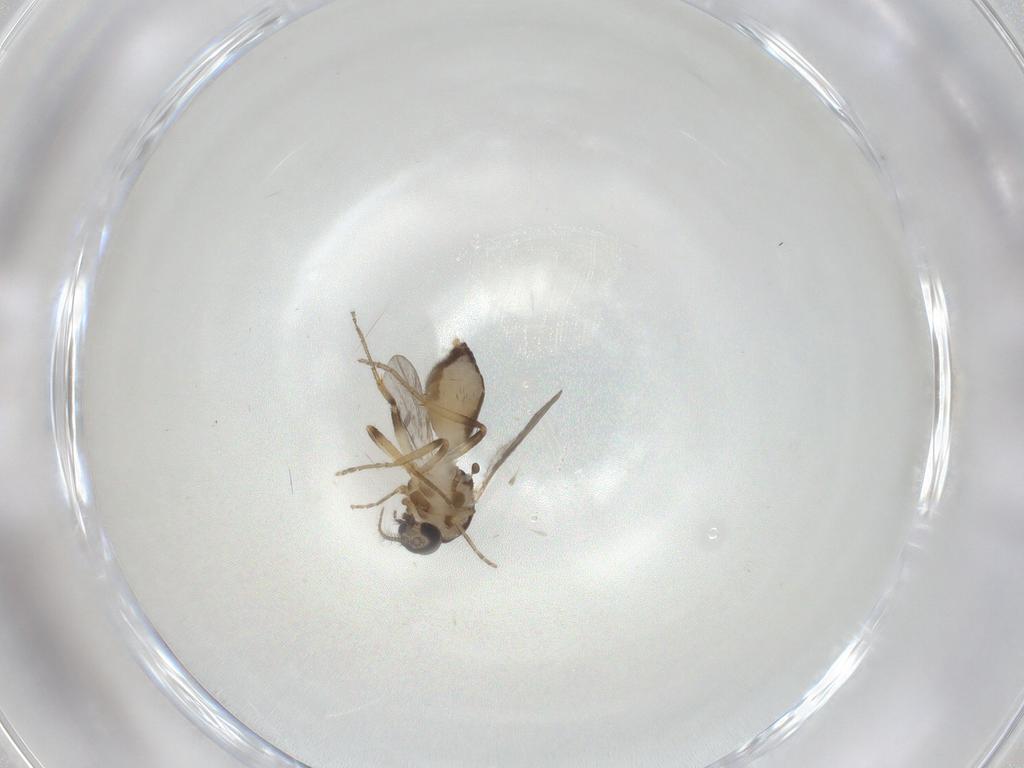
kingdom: Animalia
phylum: Arthropoda
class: Insecta
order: Diptera
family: Ceratopogonidae
